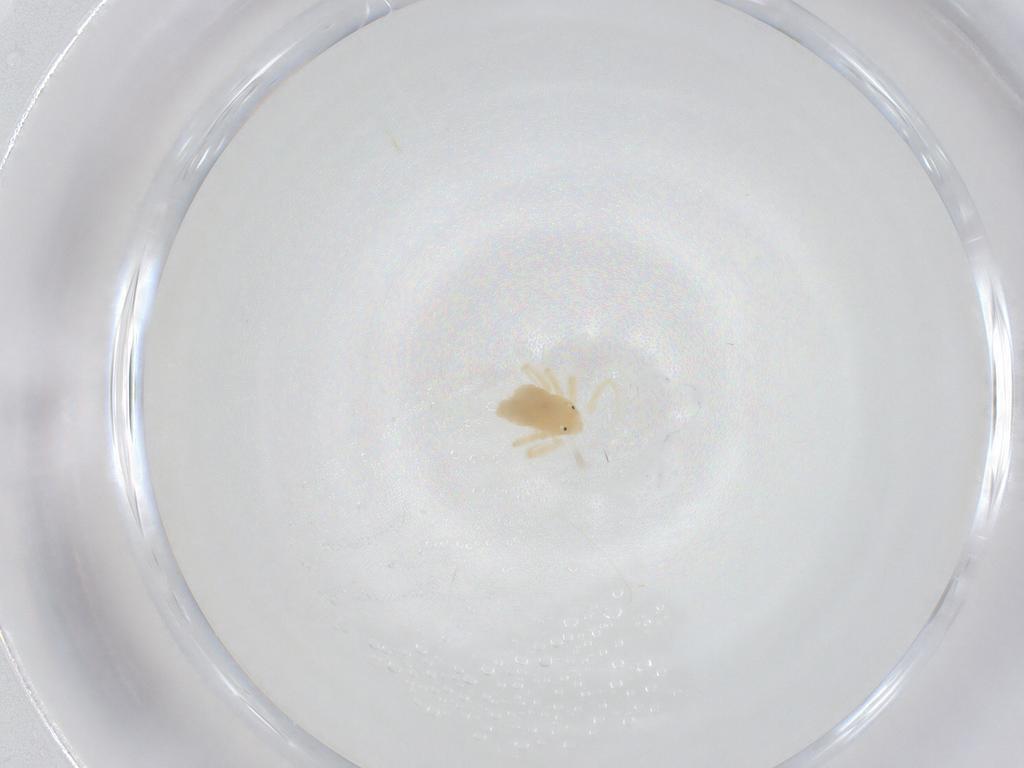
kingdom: Animalia
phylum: Arthropoda
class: Arachnida
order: Trombidiformes
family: Anystidae
